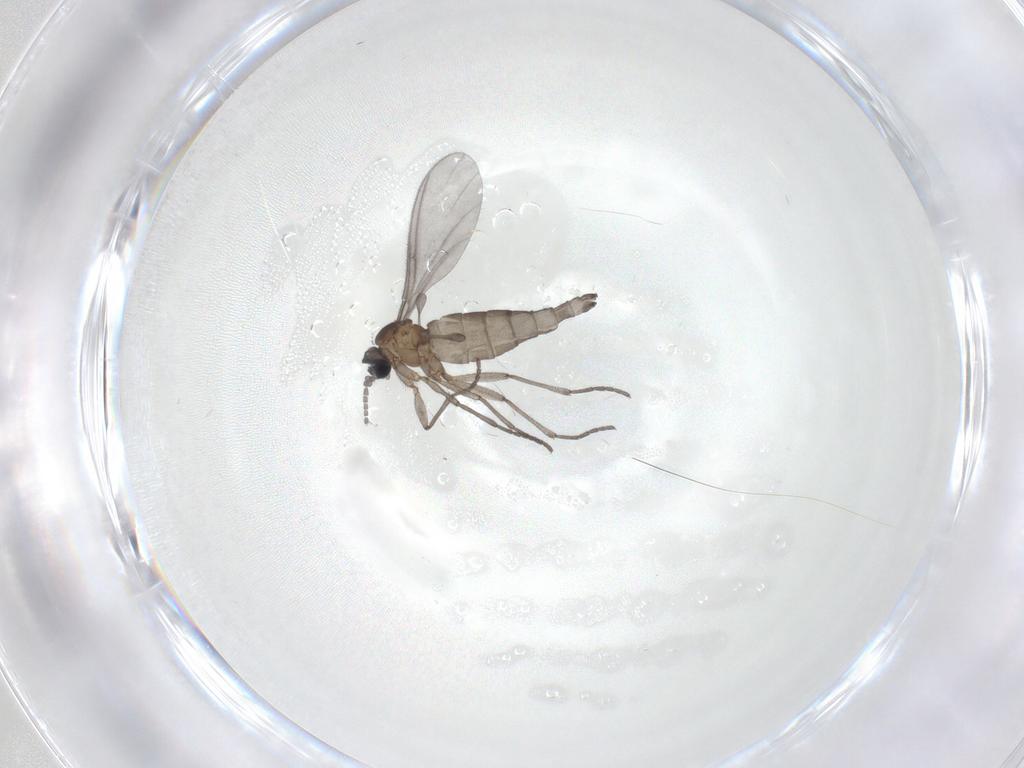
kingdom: Animalia
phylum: Arthropoda
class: Insecta
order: Diptera
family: Sciaridae
